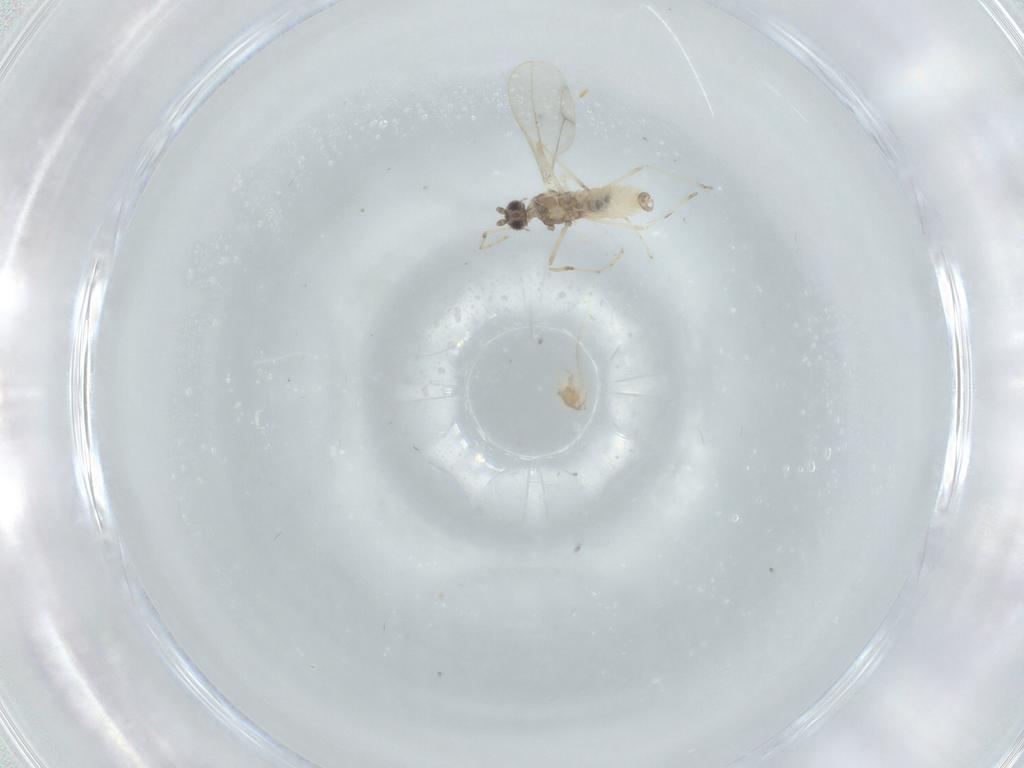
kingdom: Animalia
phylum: Arthropoda
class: Insecta
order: Diptera
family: Cecidomyiidae
